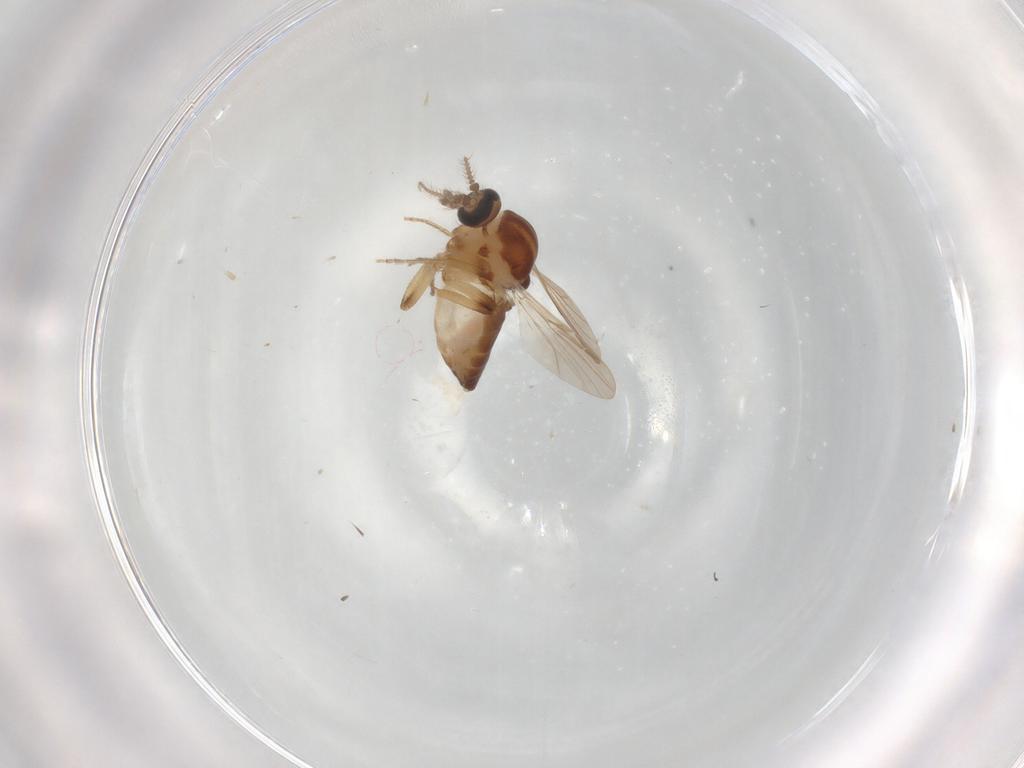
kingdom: Animalia
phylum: Arthropoda
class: Insecta
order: Diptera
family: Ceratopogonidae
